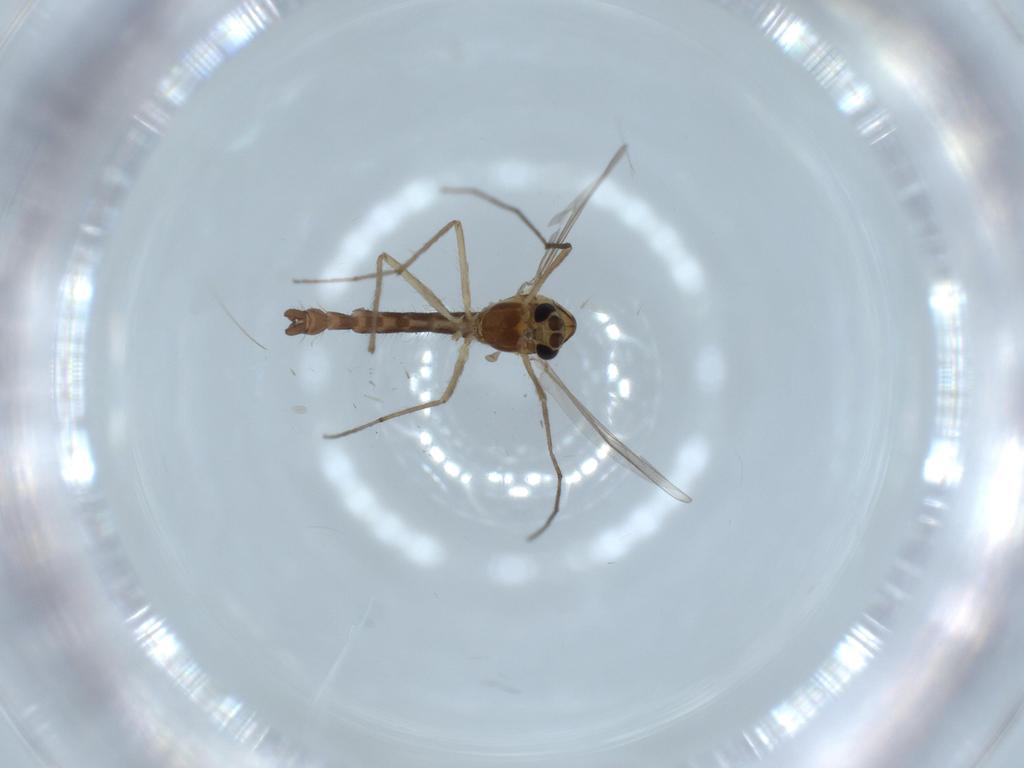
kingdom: Animalia
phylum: Arthropoda
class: Insecta
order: Diptera
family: Chironomidae
